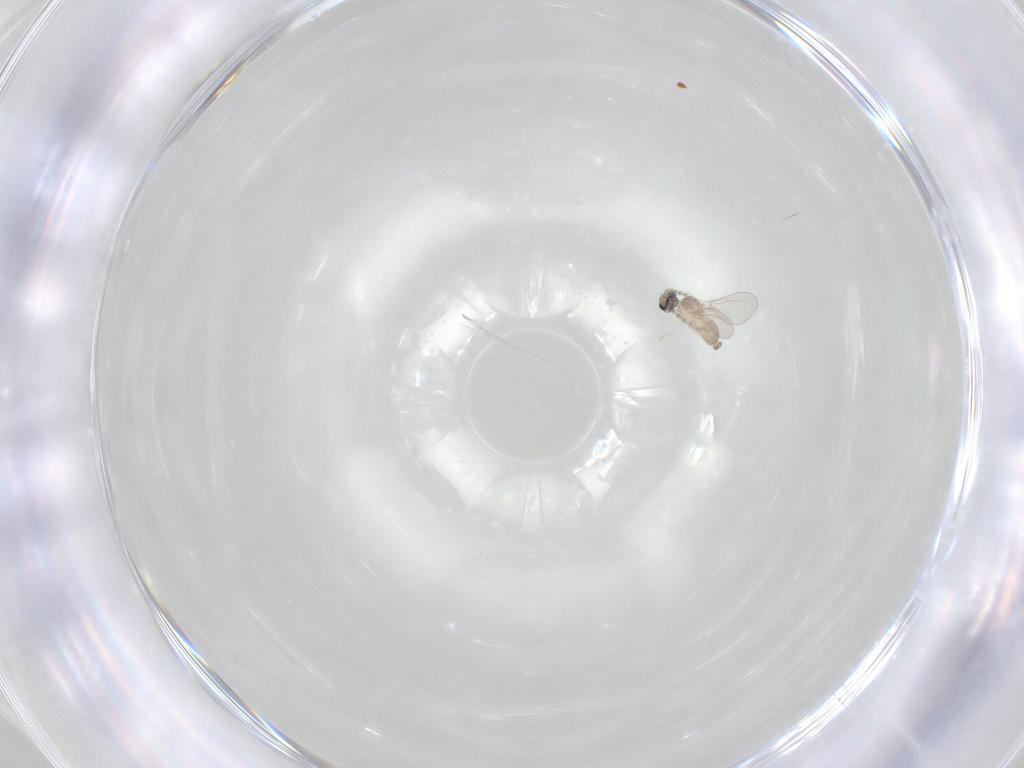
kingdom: Animalia
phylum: Arthropoda
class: Insecta
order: Diptera
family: Cecidomyiidae
